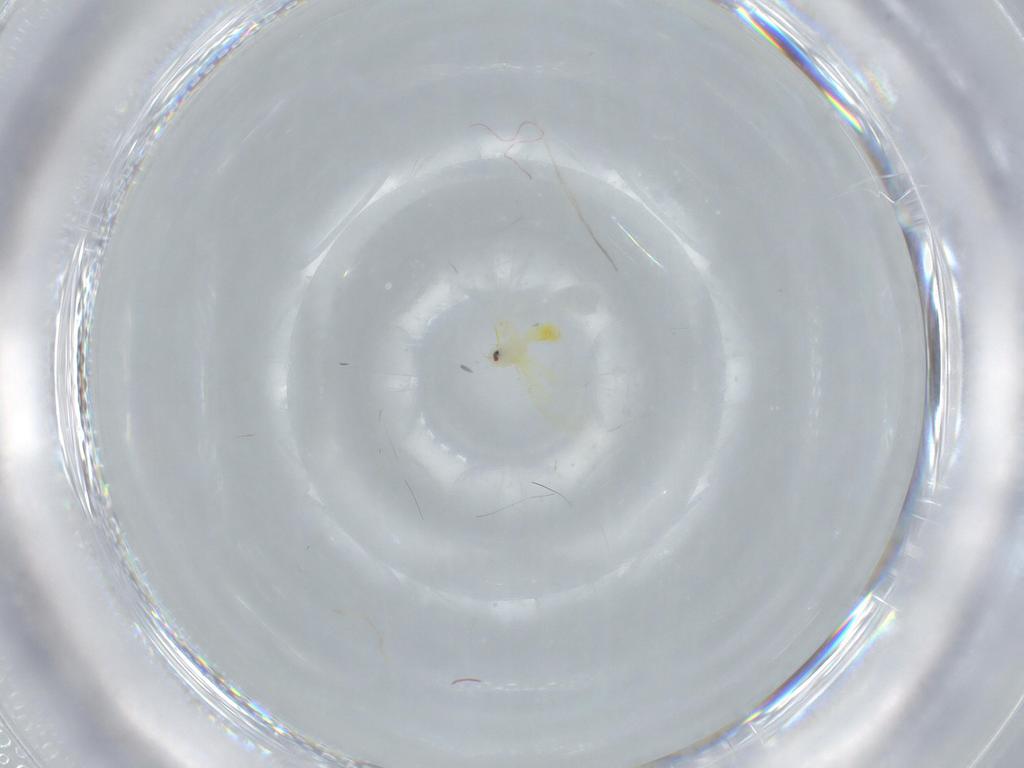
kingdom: Animalia
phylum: Arthropoda
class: Insecta
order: Hemiptera
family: Aleyrodidae
